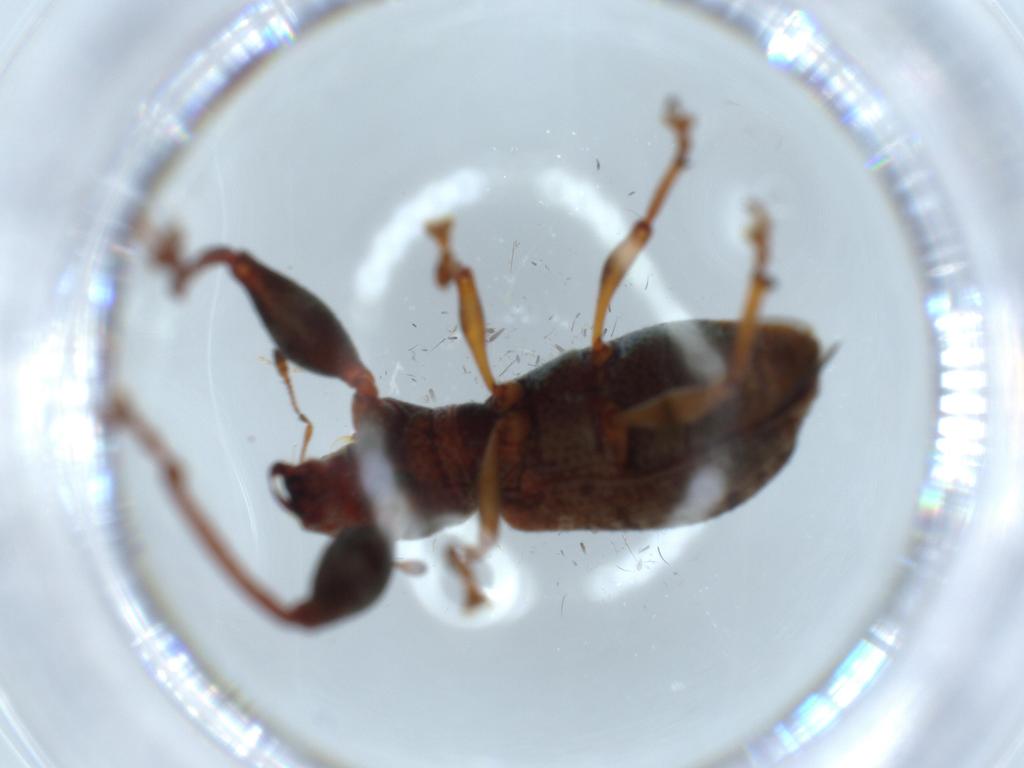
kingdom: Animalia
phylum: Arthropoda
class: Insecta
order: Coleoptera
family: Curculionidae
